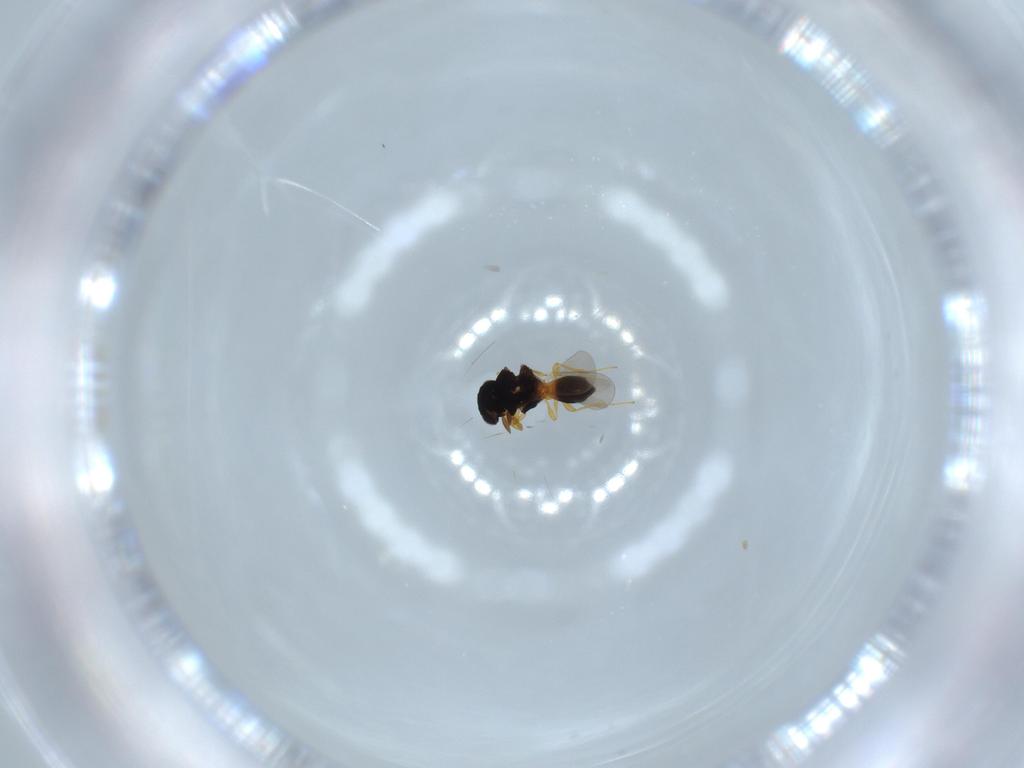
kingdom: Animalia
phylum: Arthropoda
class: Insecta
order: Hymenoptera
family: Platygastridae
